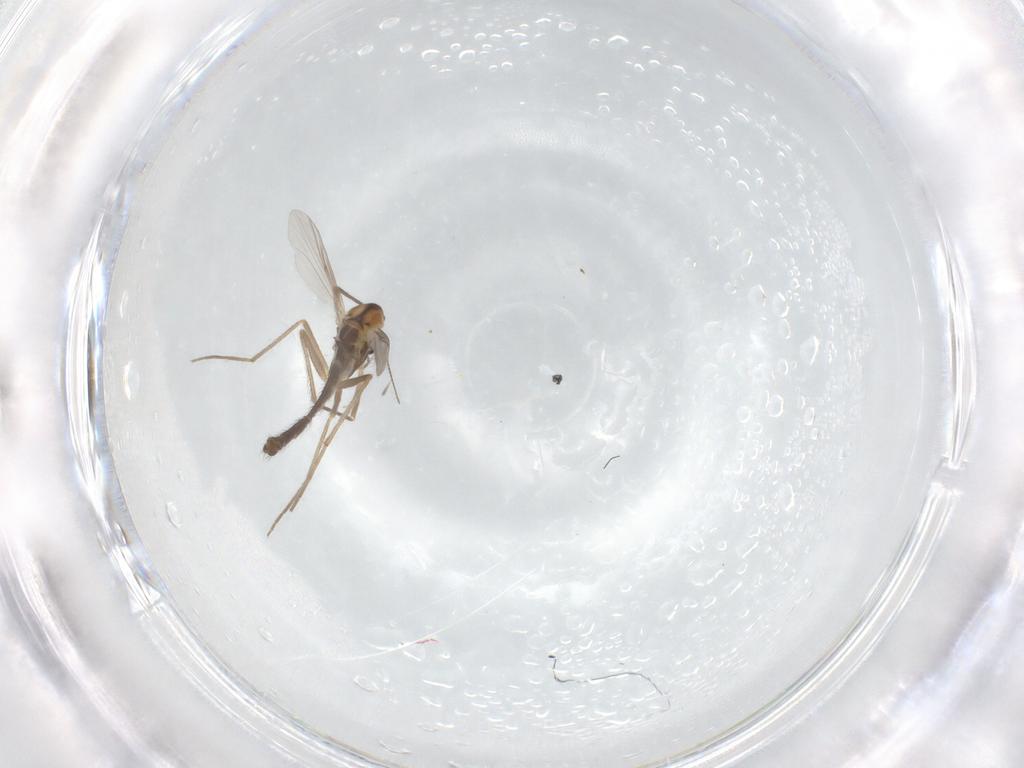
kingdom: Animalia
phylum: Arthropoda
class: Insecta
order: Diptera
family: Chironomidae
